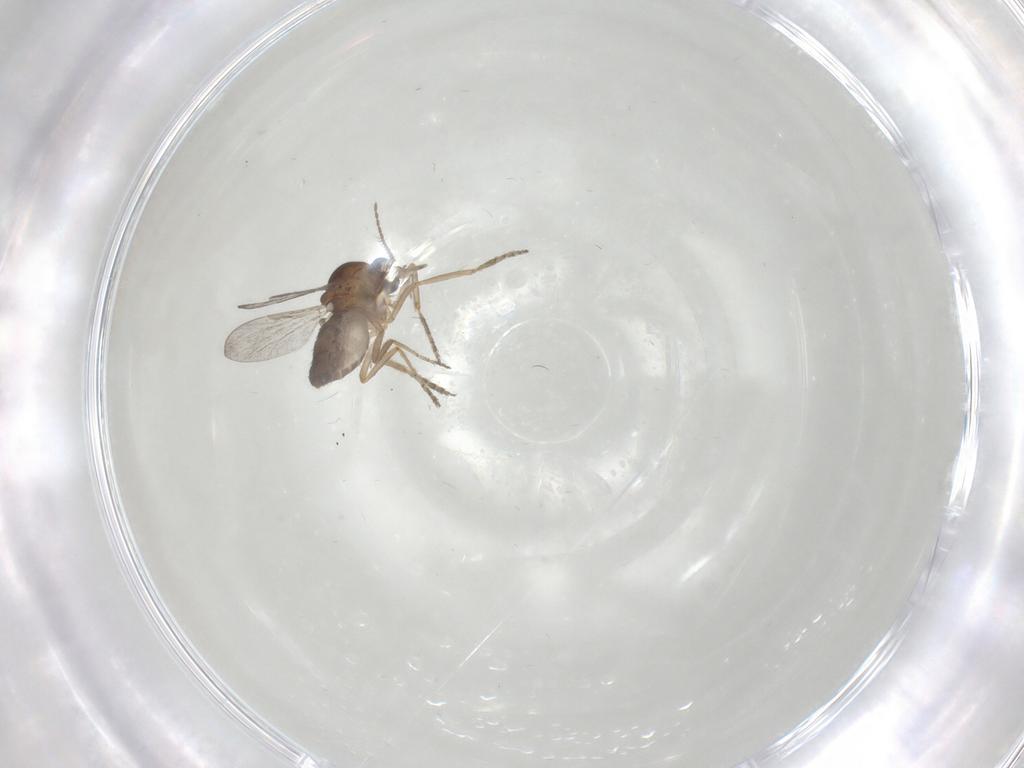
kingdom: Animalia
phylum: Arthropoda
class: Insecta
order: Diptera
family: Ceratopogonidae
